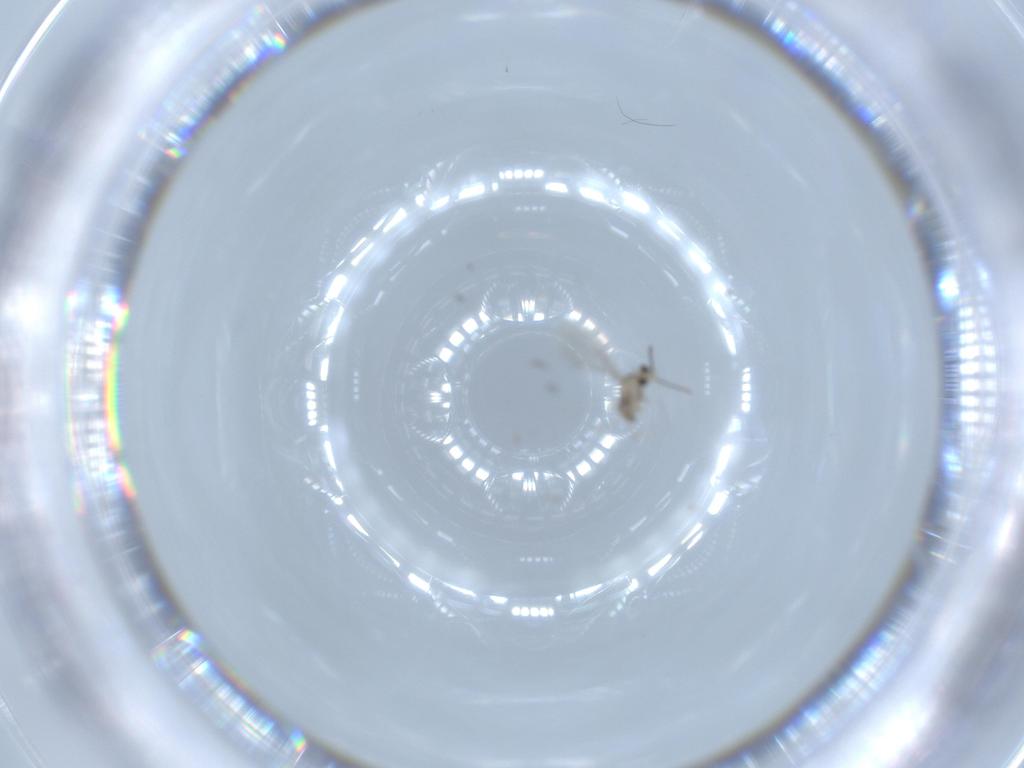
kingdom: Animalia
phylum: Arthropoda
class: Insecta
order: Diptera
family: Cecidomyiidae
